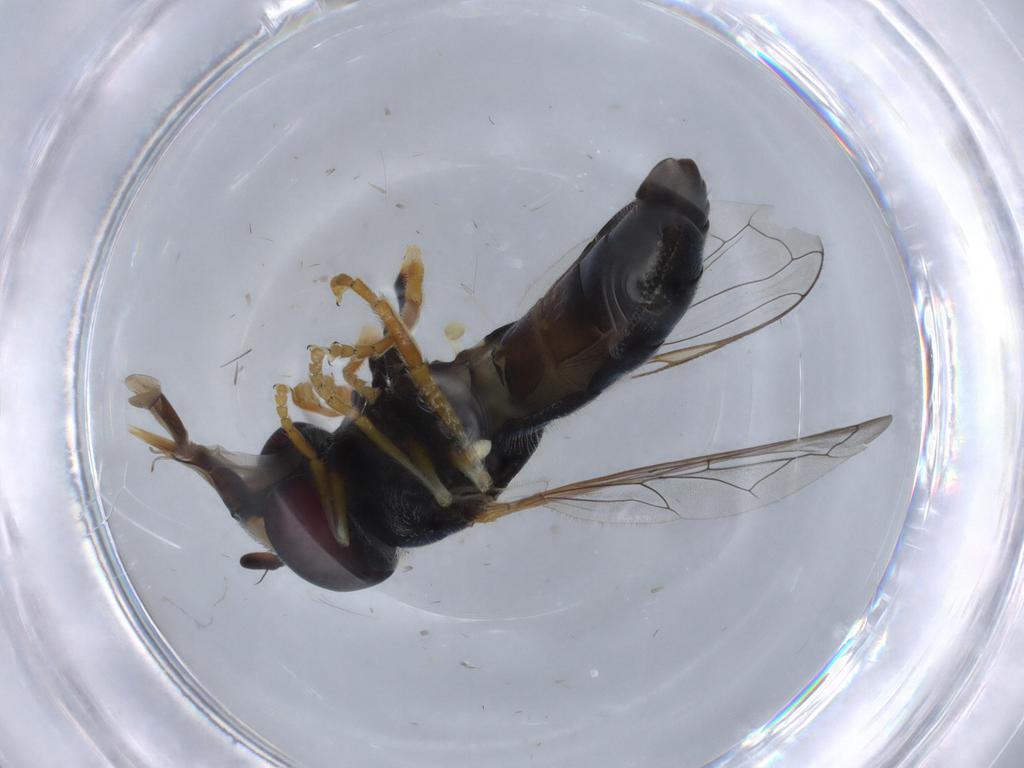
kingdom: Animalia
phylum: Arthropoda
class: Insecta
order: Diptera
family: Syrphidae
